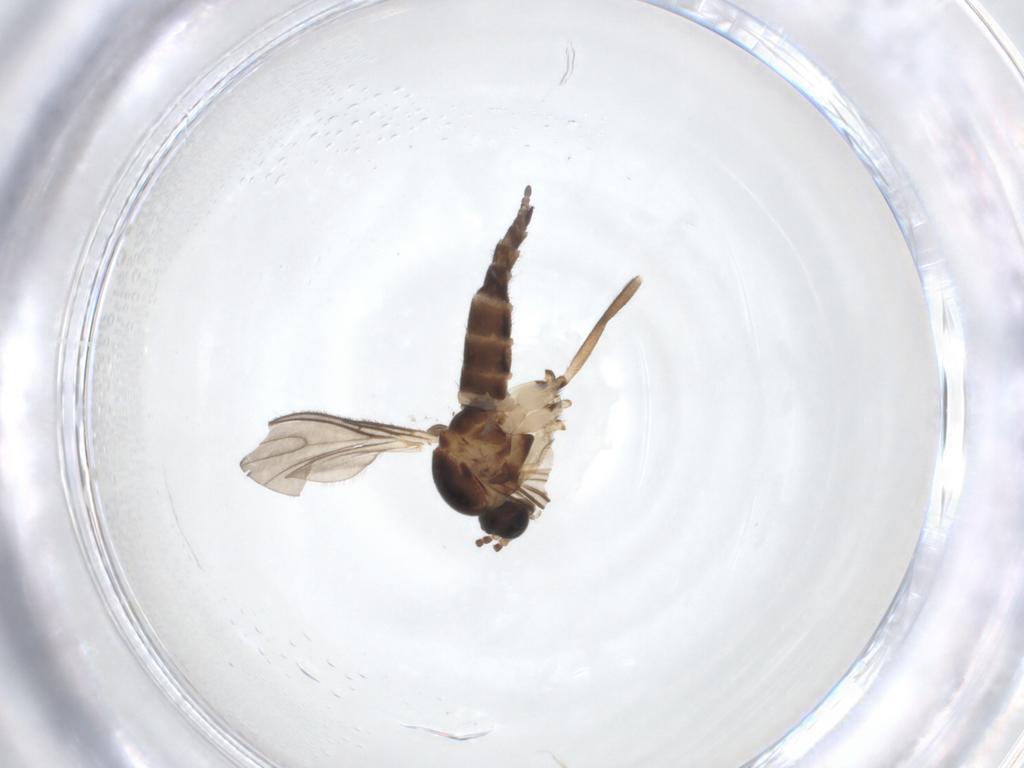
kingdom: Animalia
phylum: Arthropoda
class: Insecta
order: Diptera
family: Sciaridae
